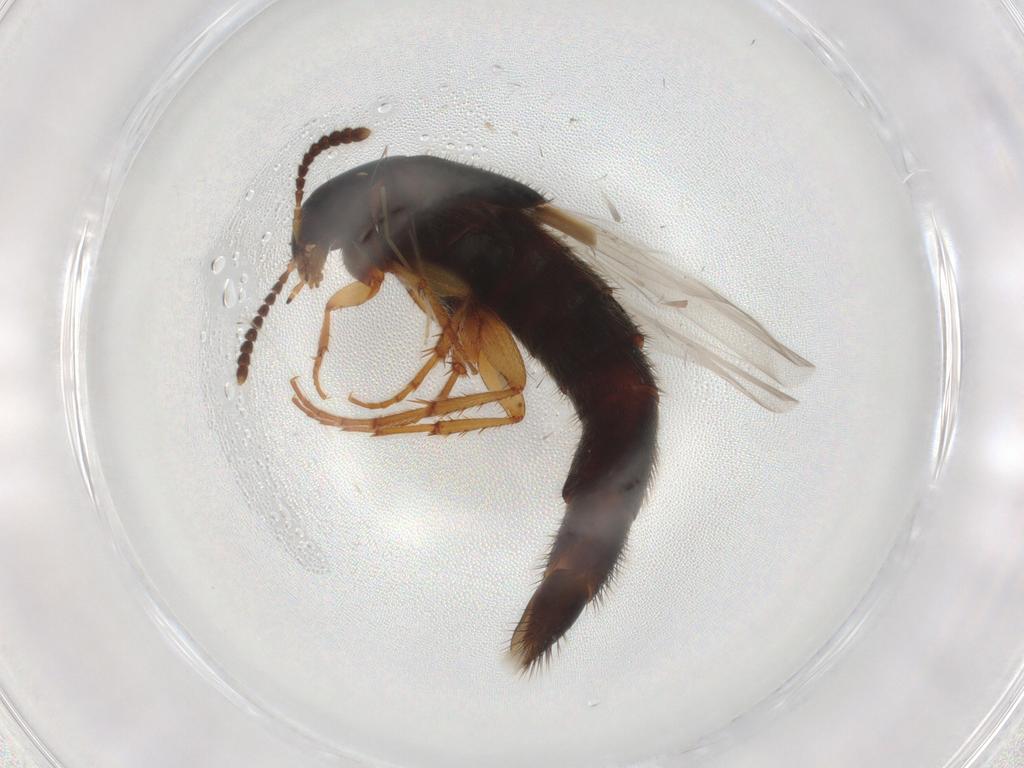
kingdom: Animalia
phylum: Arthropoda
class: Insecta
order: Coleoptera
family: Staphylinidae
